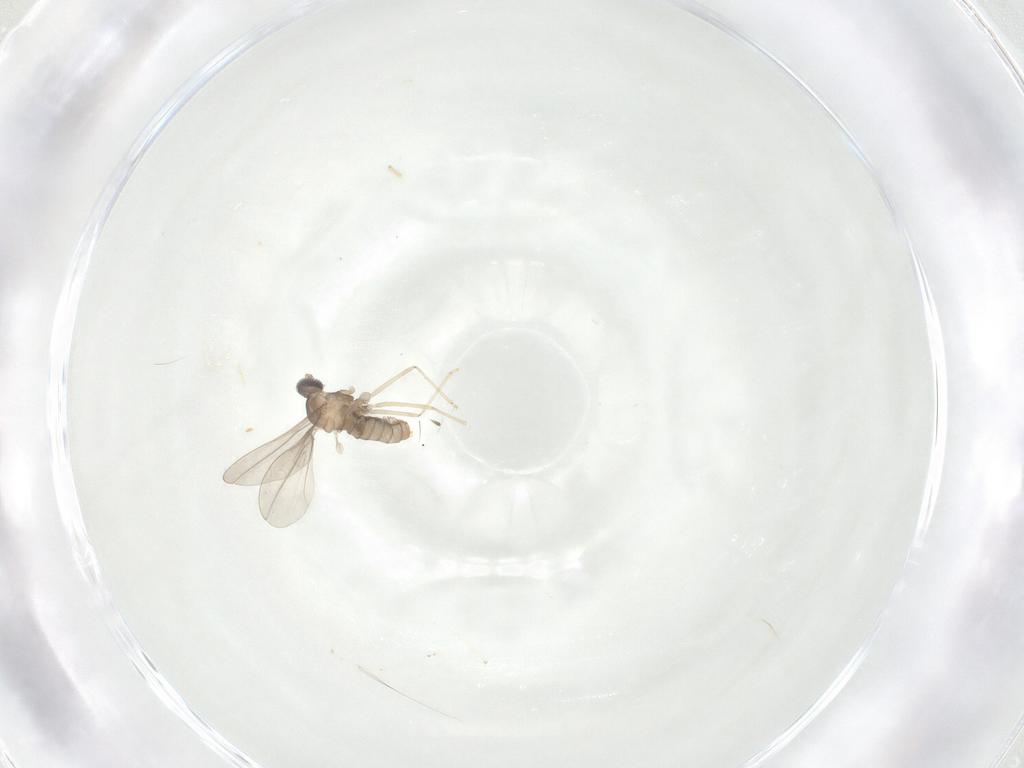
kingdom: Animalia
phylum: Arthropoda
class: Insecta
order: Diptera
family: Cecidomyiidae
